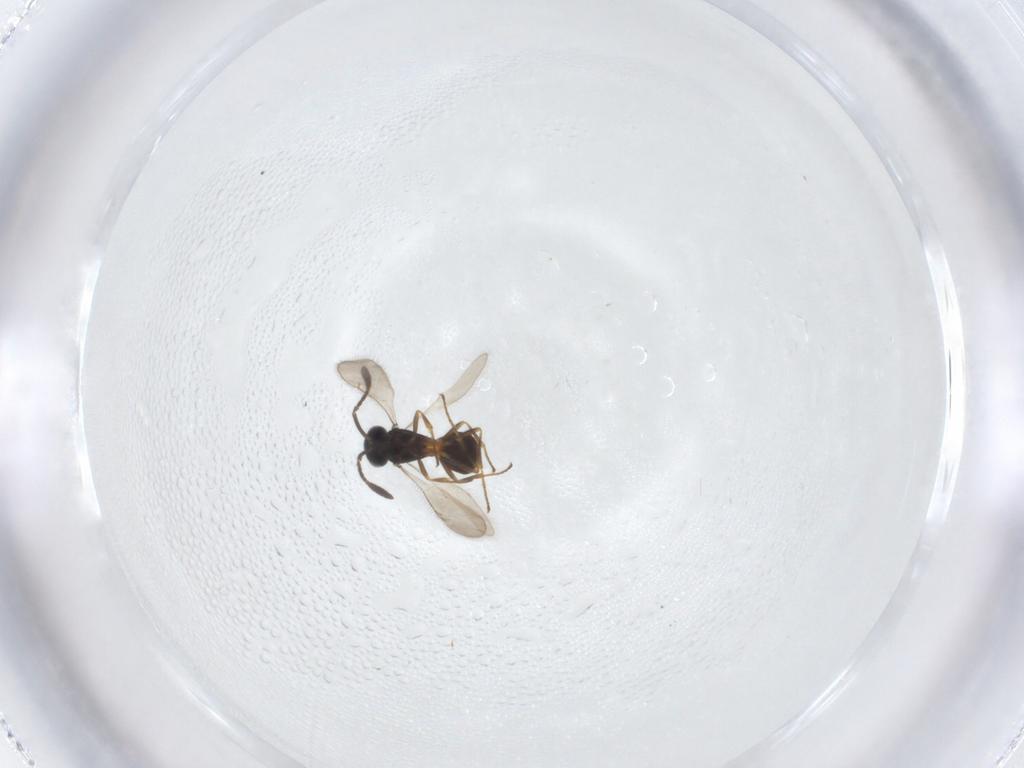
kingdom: Animalia
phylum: Arthropoda
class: Insecta
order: Hymenoptera
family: Scelionidae
